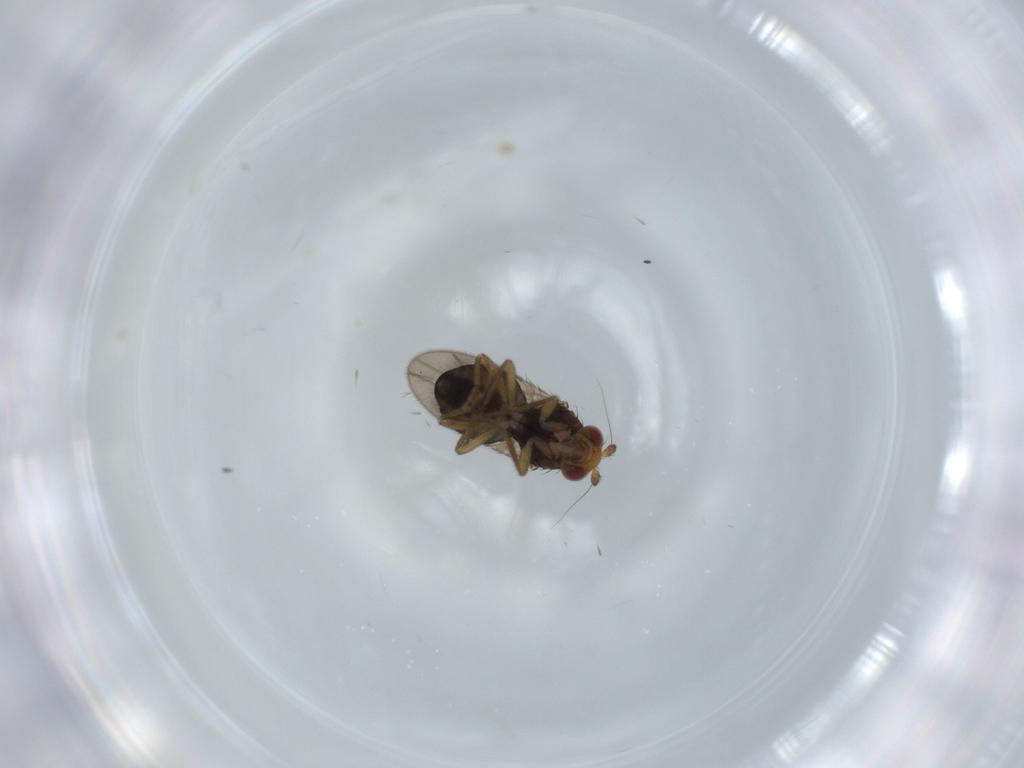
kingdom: Animalia
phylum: Arthropoda
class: Insecta
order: Diptera
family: Sphaeroceridae
